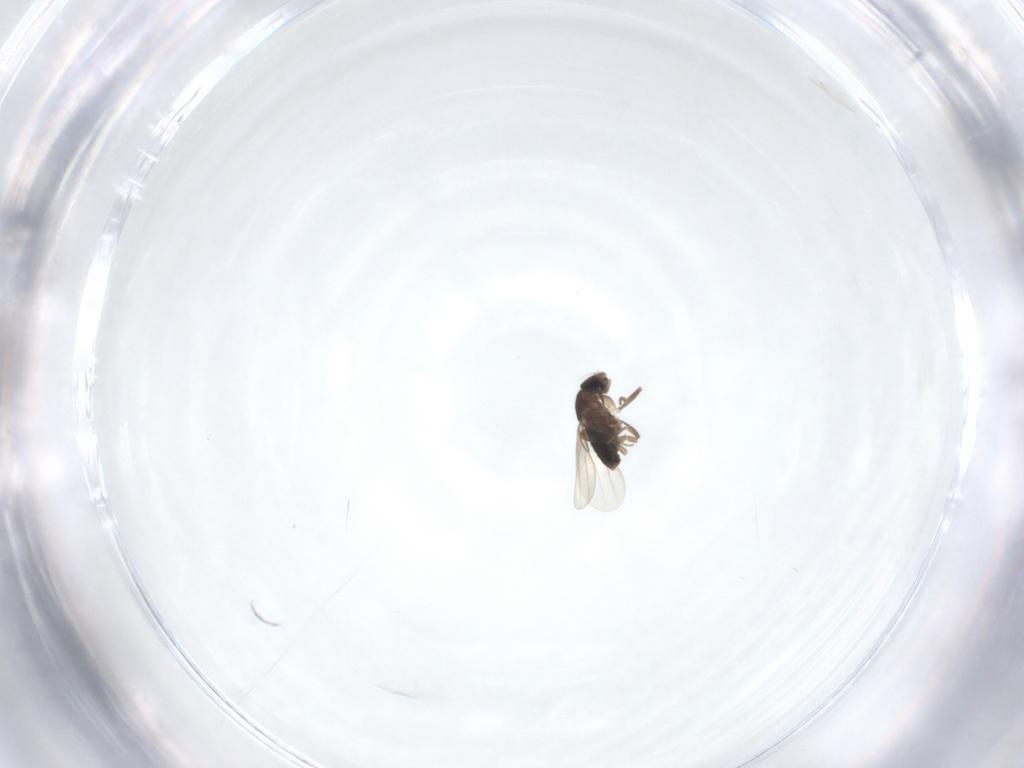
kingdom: Animalia
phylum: Arthropoda
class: Insecta
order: Diptera
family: Phoridae
